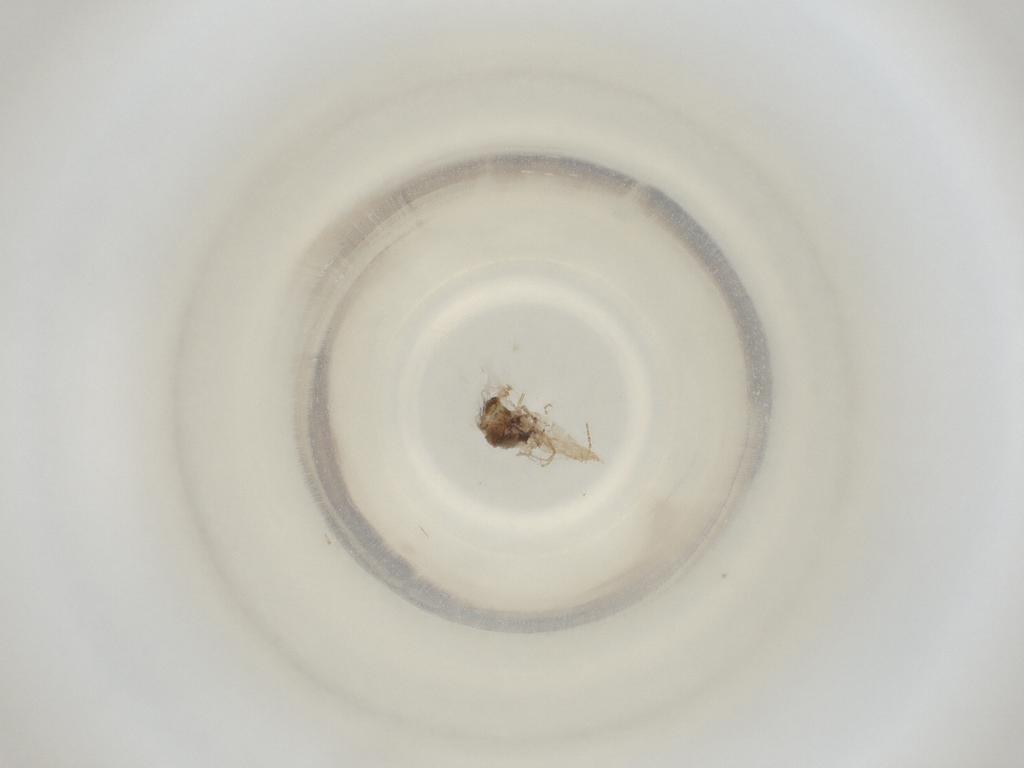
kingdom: Animalia
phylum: Arthropoda
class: Insecta
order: Diptera
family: Cecidomyiidae
